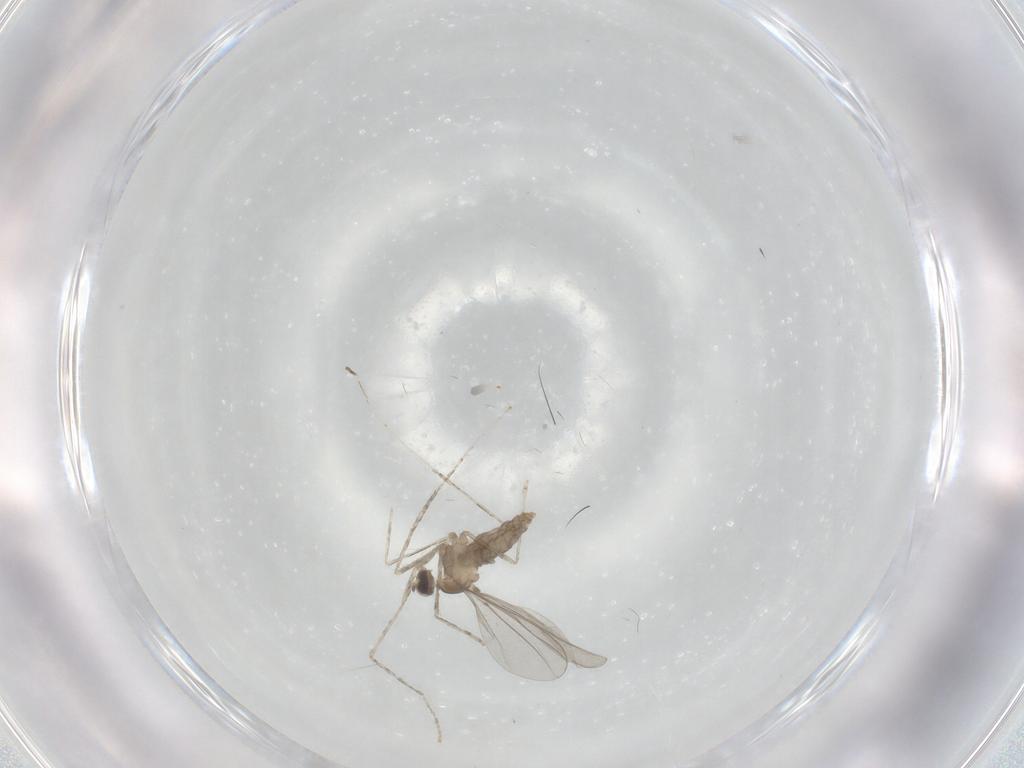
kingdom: Animalia
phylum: Arthropoda
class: Insecta
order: Diptera
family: Cecidomyiidae
